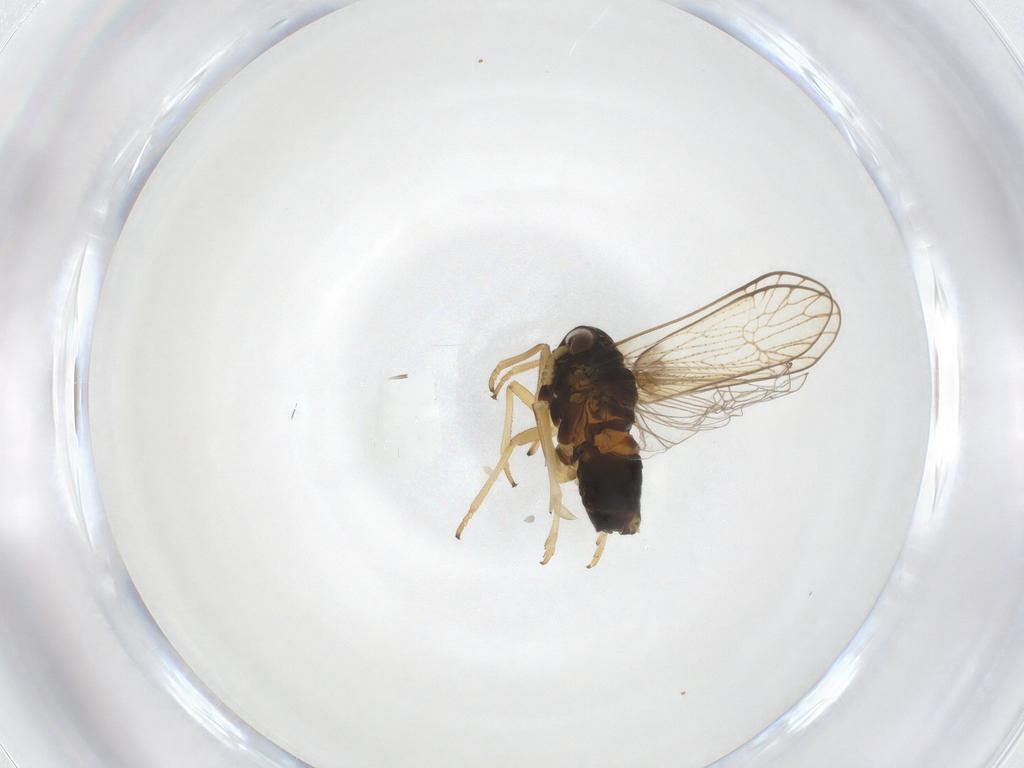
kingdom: Animalia
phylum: Arthropoda
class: Insecta
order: Hemiptera
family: Delphacidae
